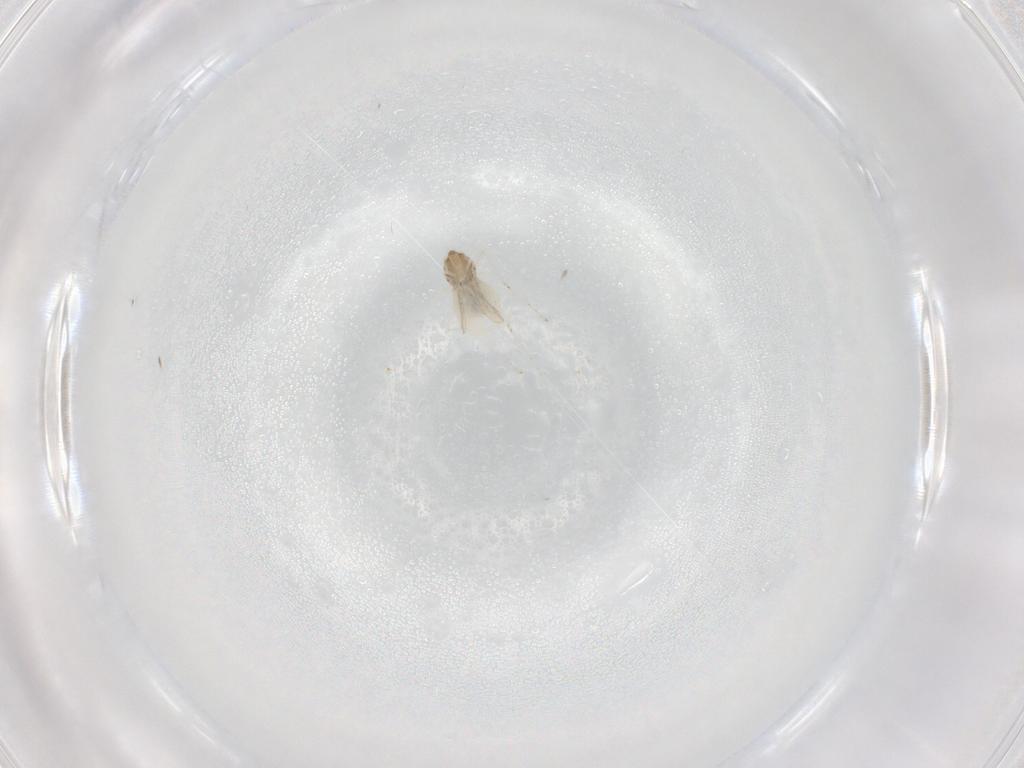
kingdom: Animalia
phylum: Arthropoda
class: Insecta
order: Diptera
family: Cecidomyiidae
